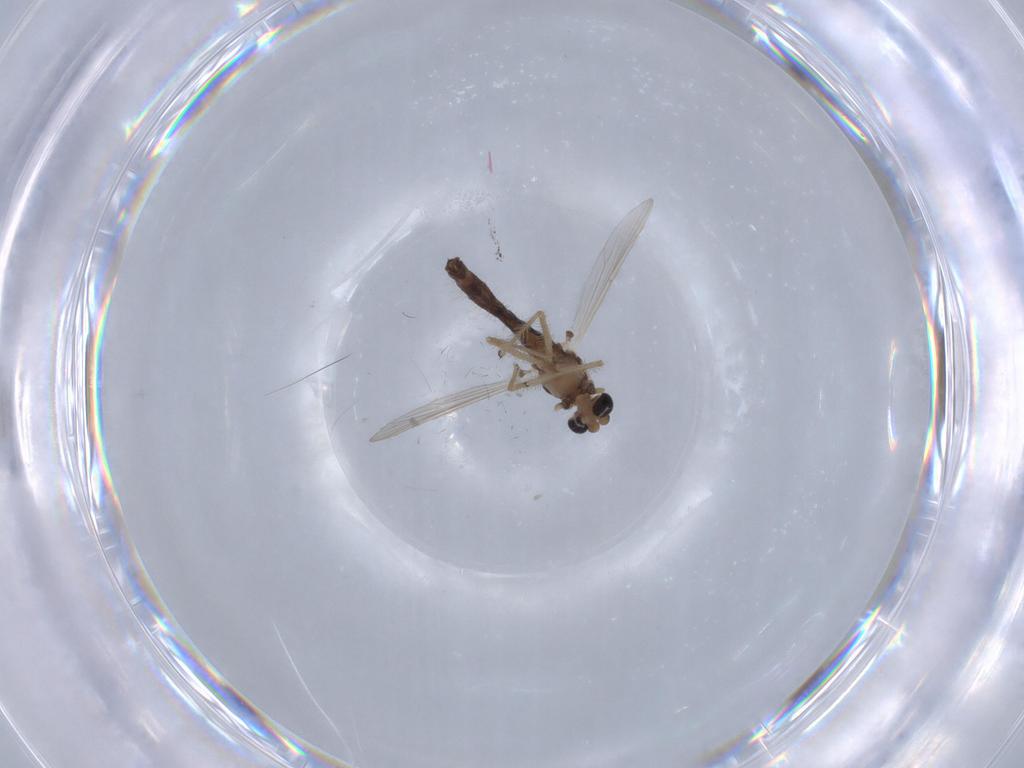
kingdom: Animalia
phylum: Arthropoda
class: Insecta
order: Diptera
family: Chironomidae
